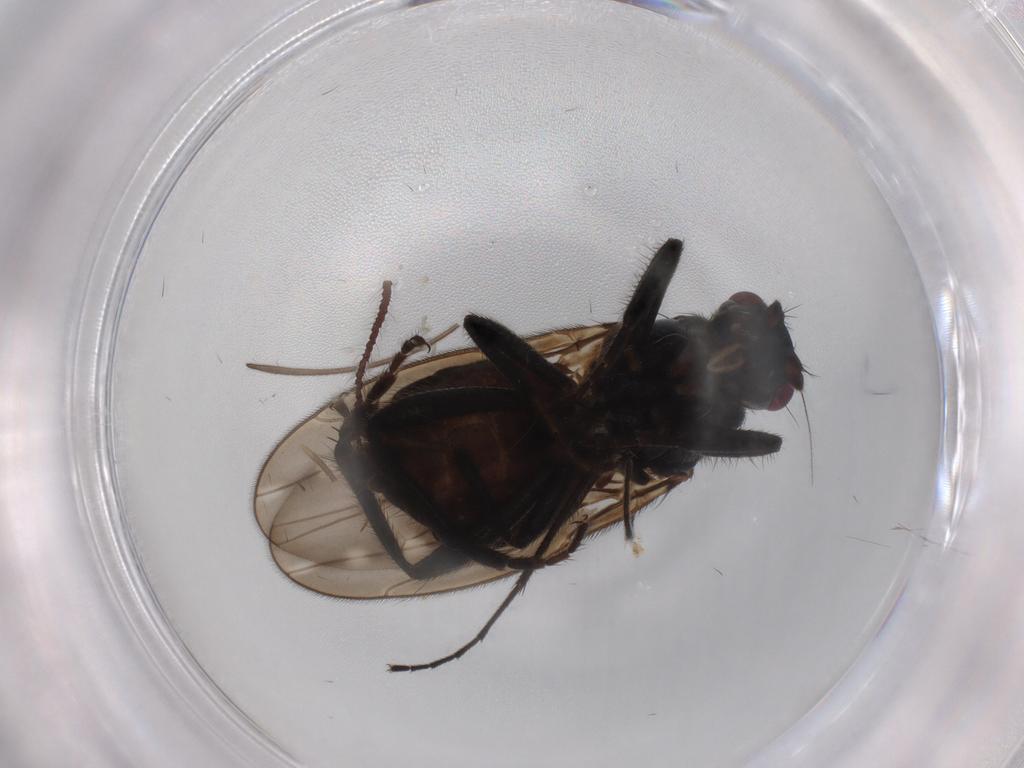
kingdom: Animalia
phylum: Arthropoda
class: Insecta
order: Diptera
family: Sphaeroceridae
